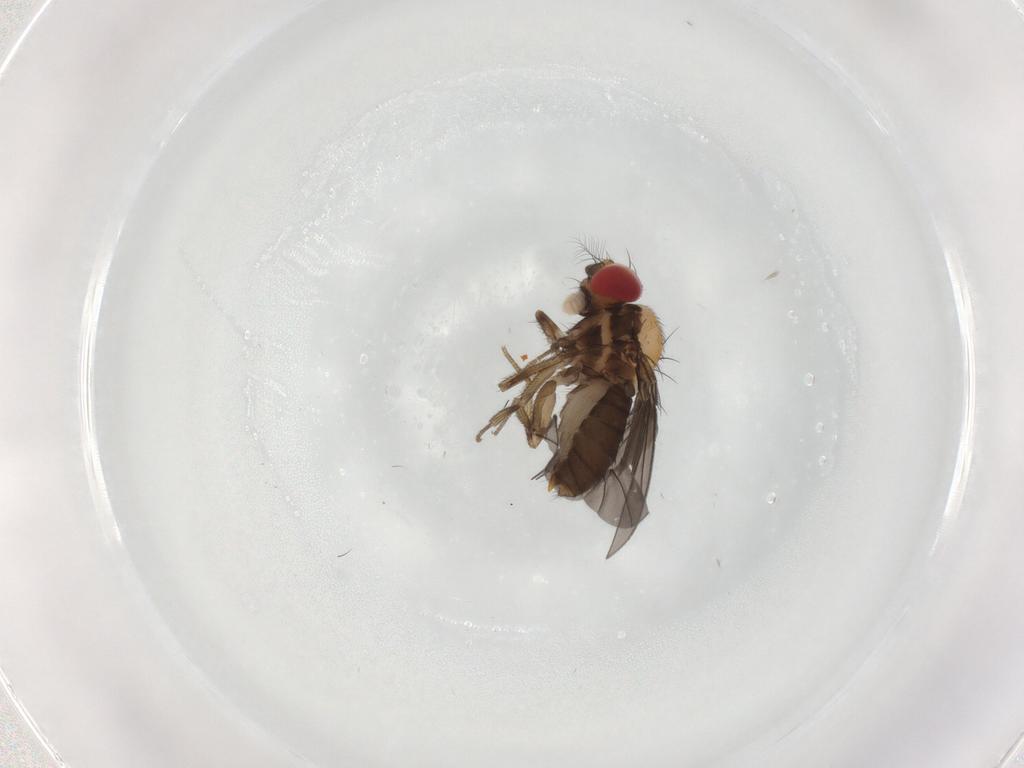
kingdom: Animalia
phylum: Arthropoda
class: Insecta
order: Diptera
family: Drosophilidae
